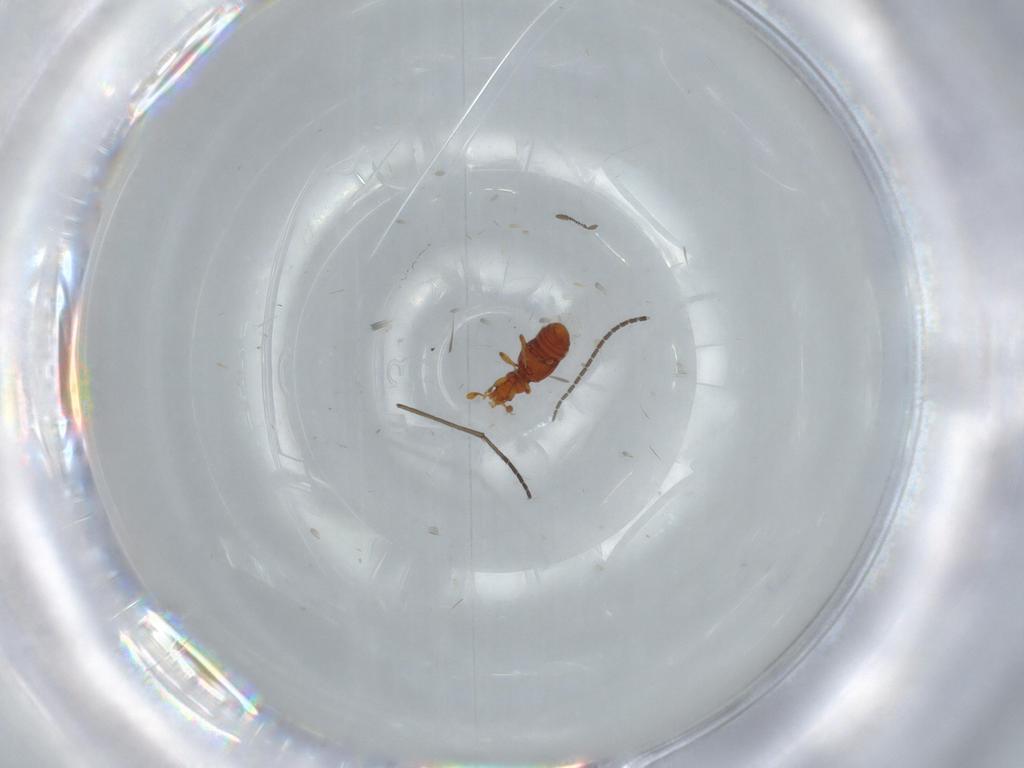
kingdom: Animalia
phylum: Arthropoda
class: Insecta
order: Coleoptera
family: Staphylinidae
